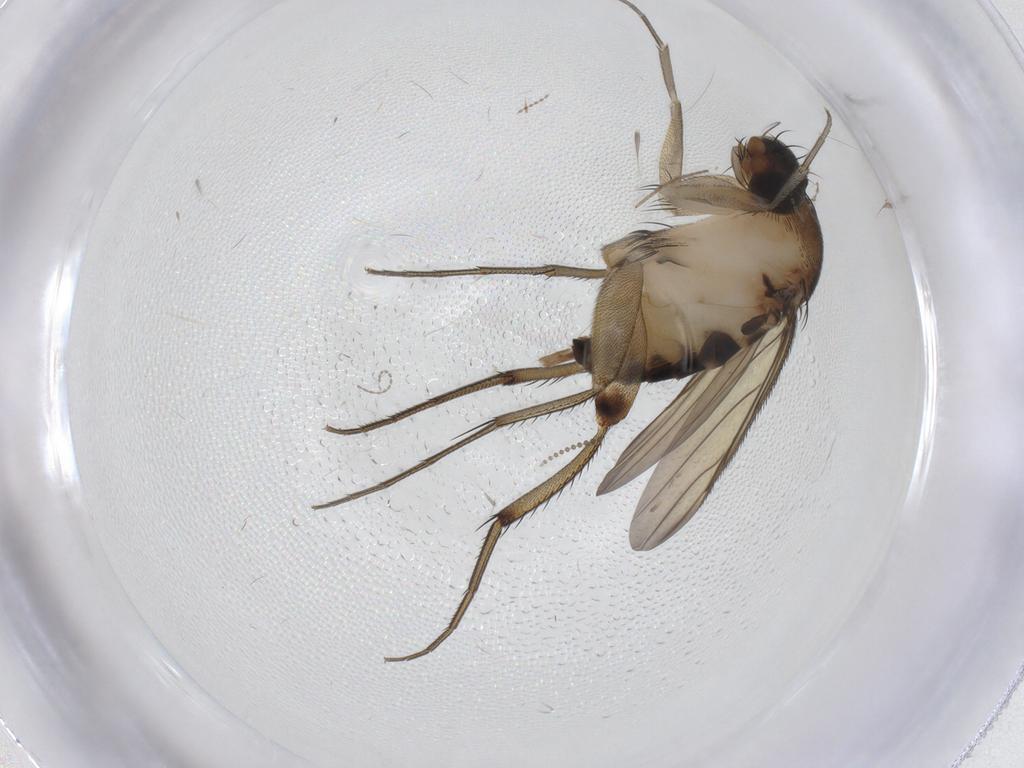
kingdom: Animalia
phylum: Arthropoda
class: Insecta
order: Diptera
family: Phoridae
